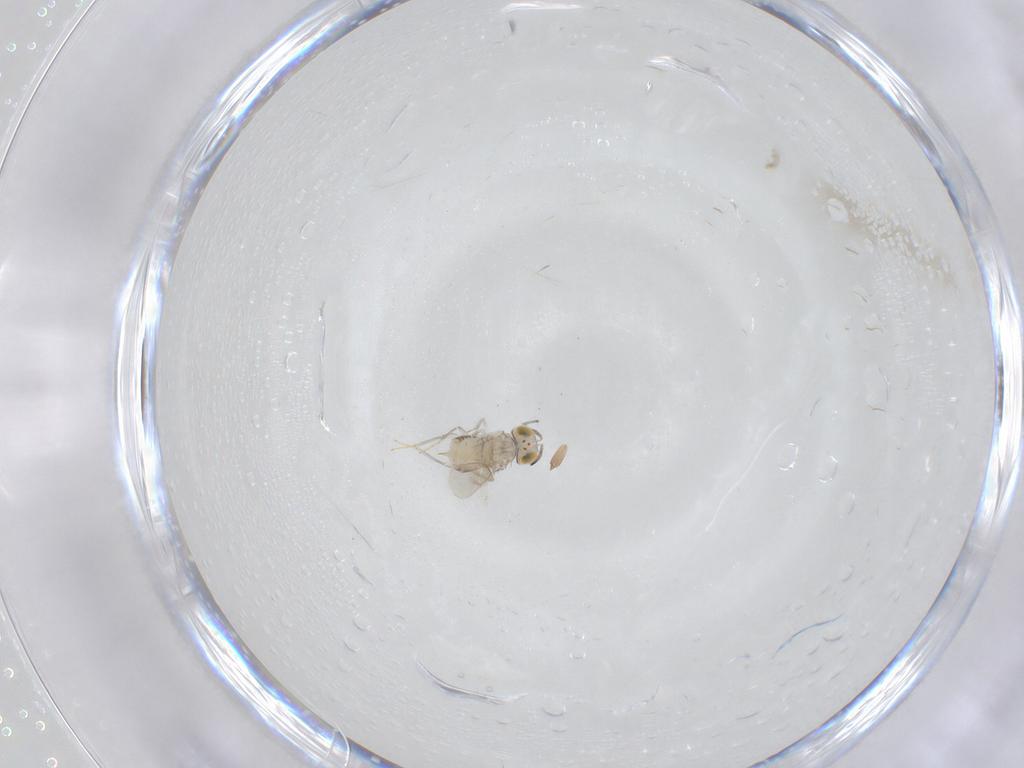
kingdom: Animalia
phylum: Arthropoda
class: Insecta
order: Hymenoptera
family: Aphelinidae
